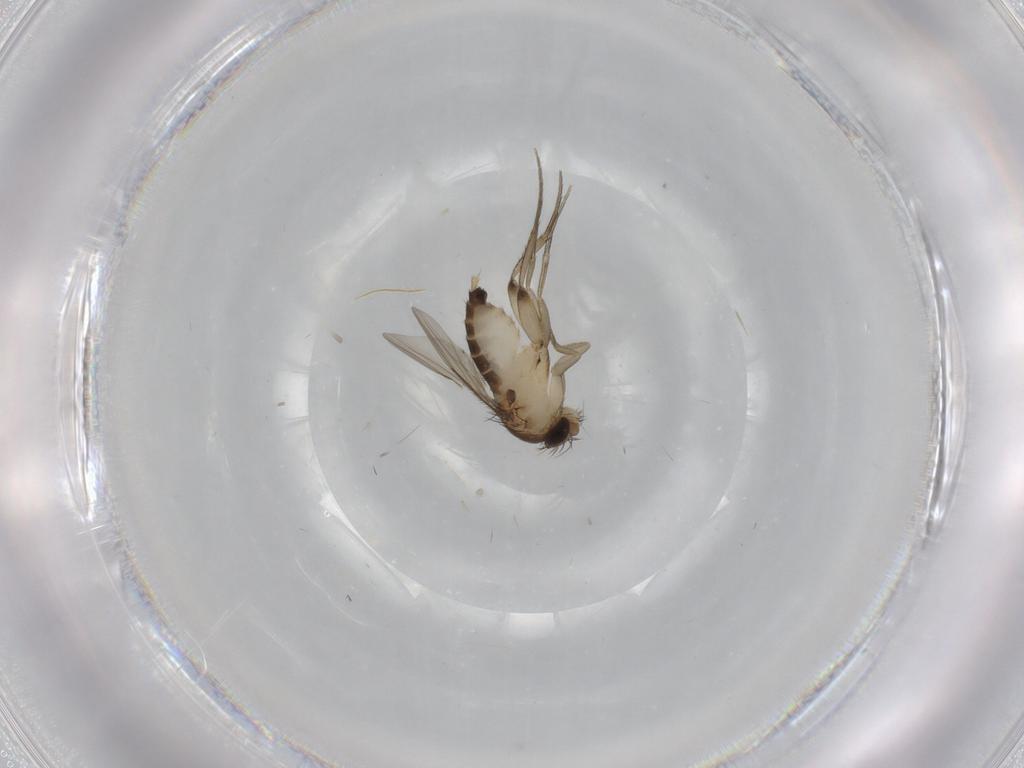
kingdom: Animalia
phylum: Arthropoda
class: Insecta
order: Diptera
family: Phoridae
